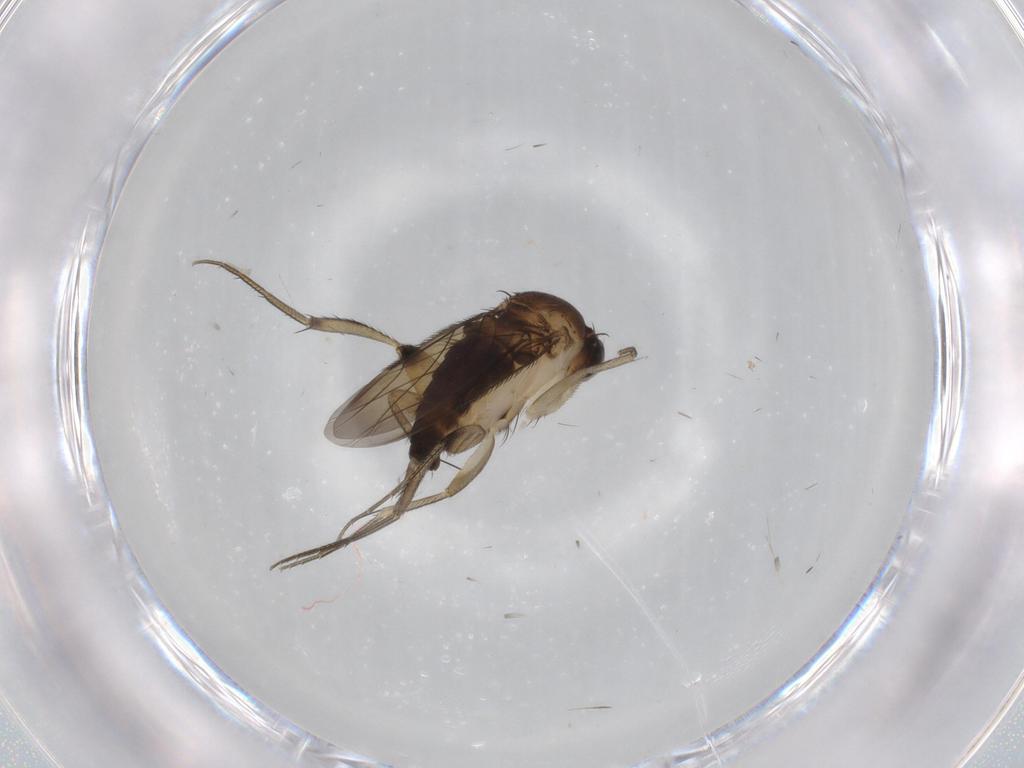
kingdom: Animalia
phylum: Arthropoda
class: Insecta
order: Diptera
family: Phoridae
